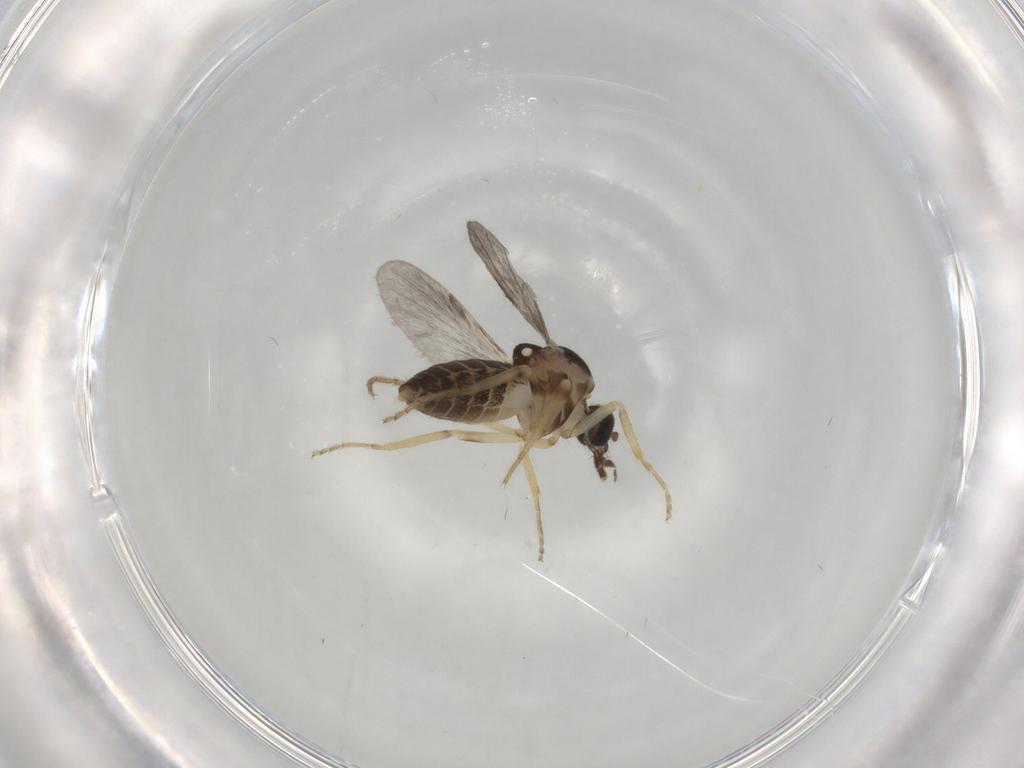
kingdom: Animalia
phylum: Arthropoda
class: Insecta
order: Diptera
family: Ceratopogonidae
